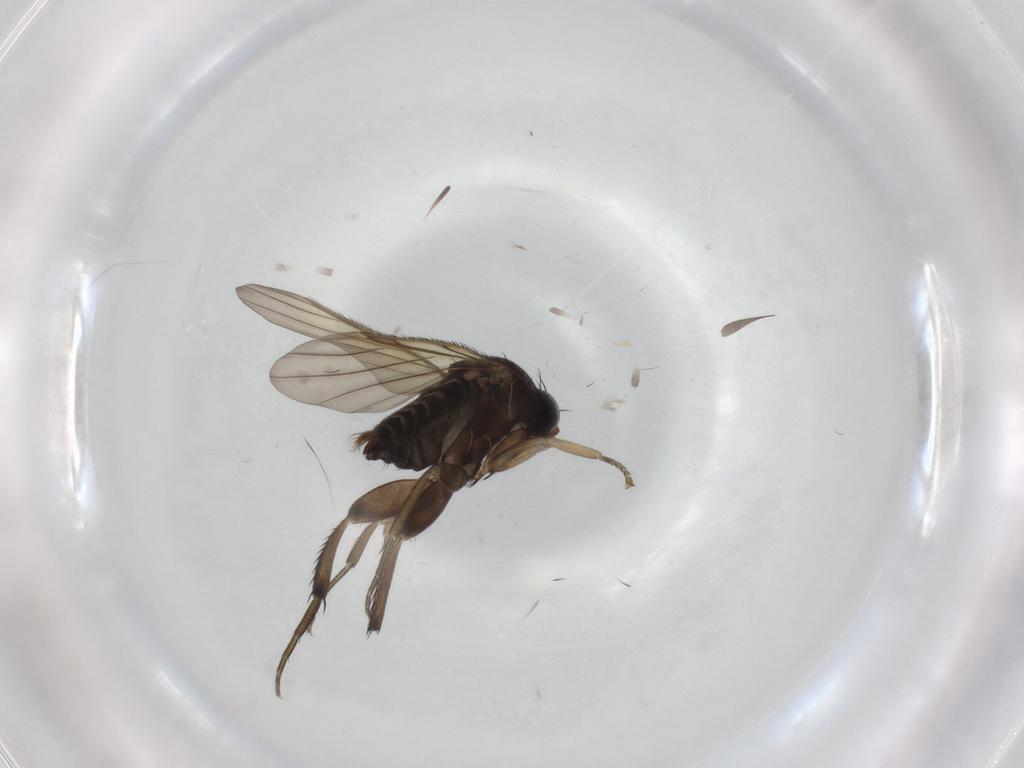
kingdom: Animalia
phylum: Arthropoda
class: Insecta
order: Diptera
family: Phoridae
